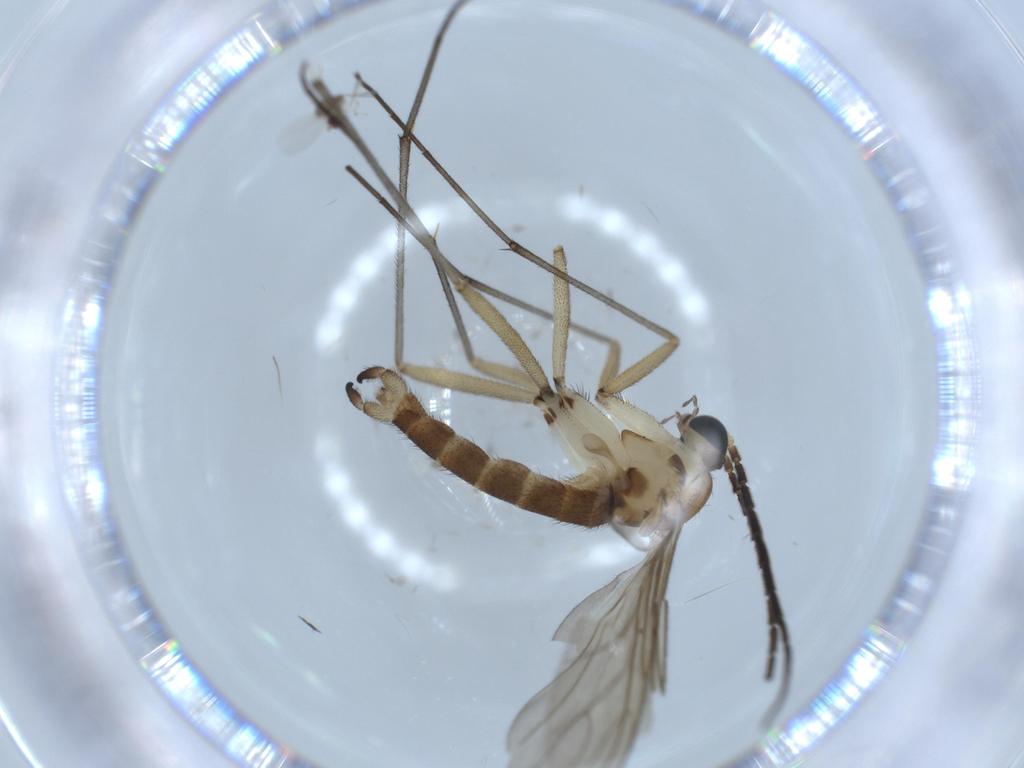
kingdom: Animalia
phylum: Arthropoda
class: Insecta
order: Diptera
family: Sciaridae
